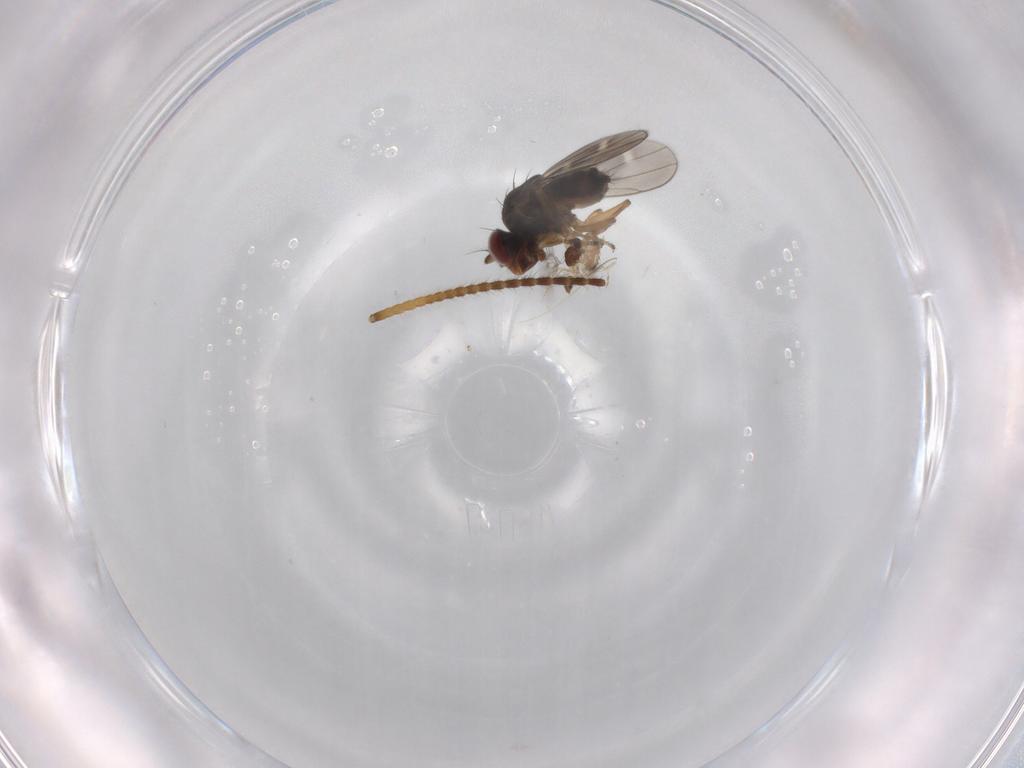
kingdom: Animalia
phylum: Arthropoda
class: Insecta
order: Diptera
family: Ephydridae
